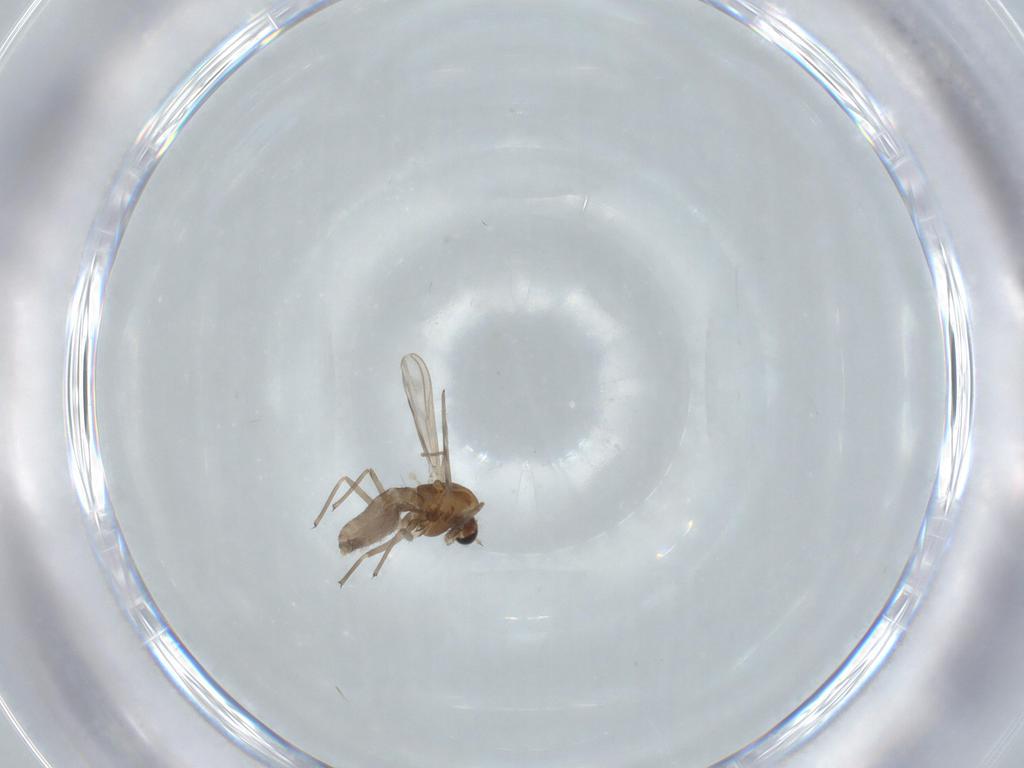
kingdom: Animalia
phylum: Arthropoda
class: Insecta
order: Diptera
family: Chironomidae
